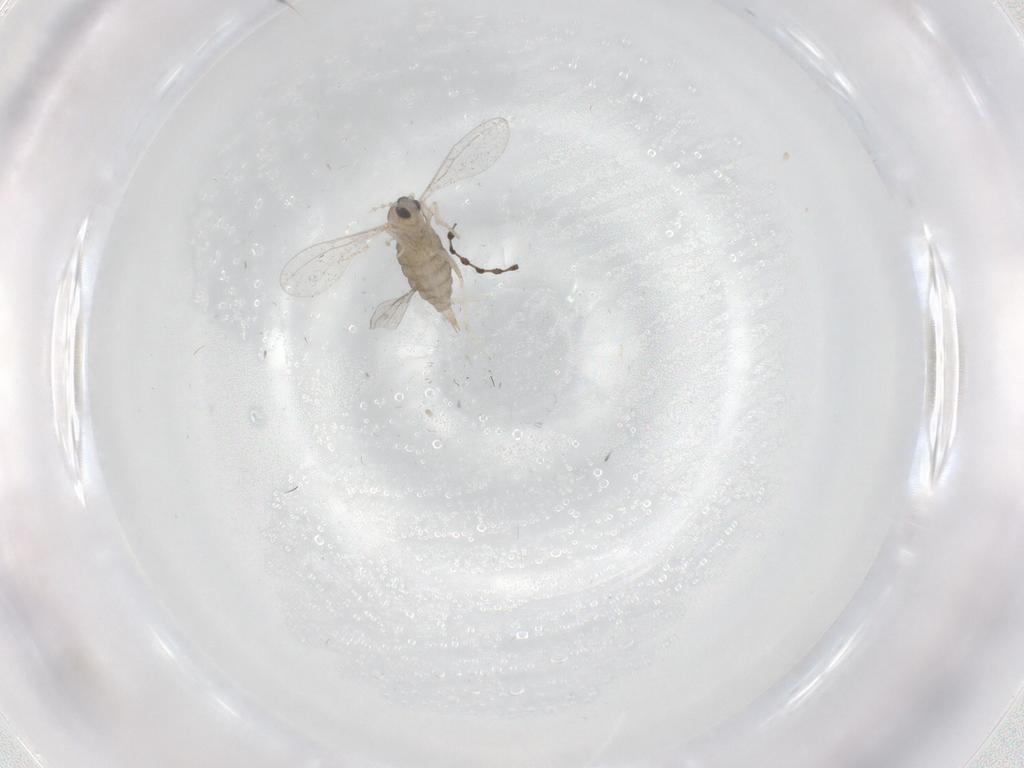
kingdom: Animalia
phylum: Arthropoda
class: Insecta
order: Diptera
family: Cecidomyiidae
